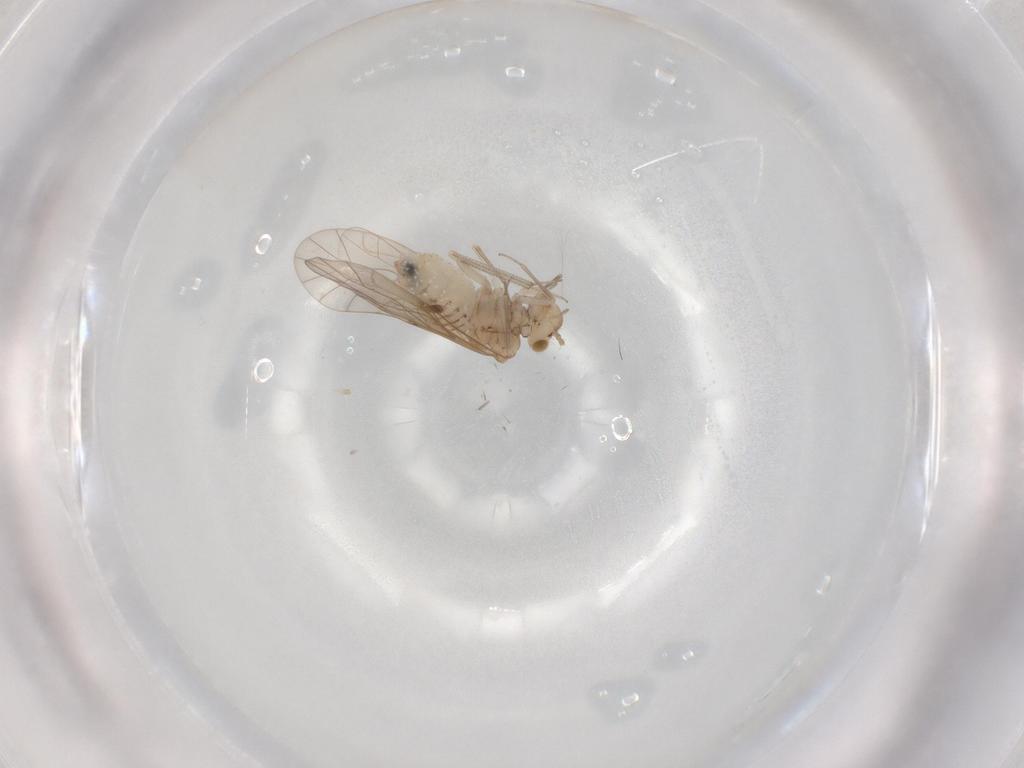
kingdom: Animalia
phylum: Arthropoda
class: Insecta
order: Psocodea
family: Lachesillidae
